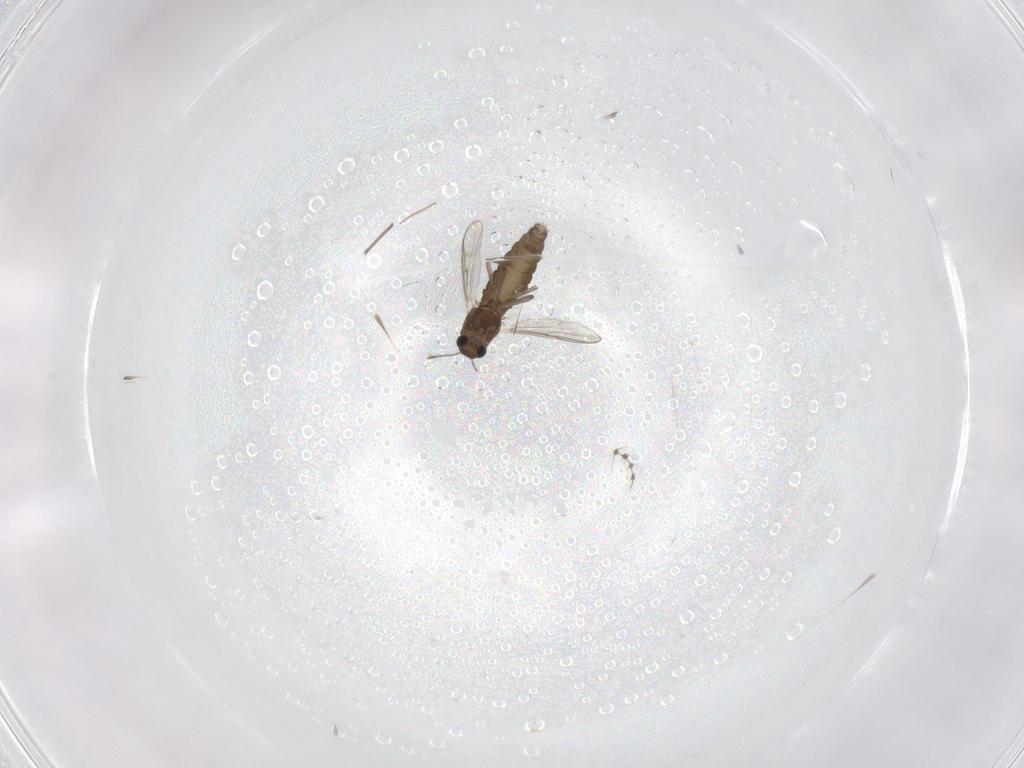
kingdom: Animalia
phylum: Arthropoda
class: Insecta
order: Diptera
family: Chironomidae
